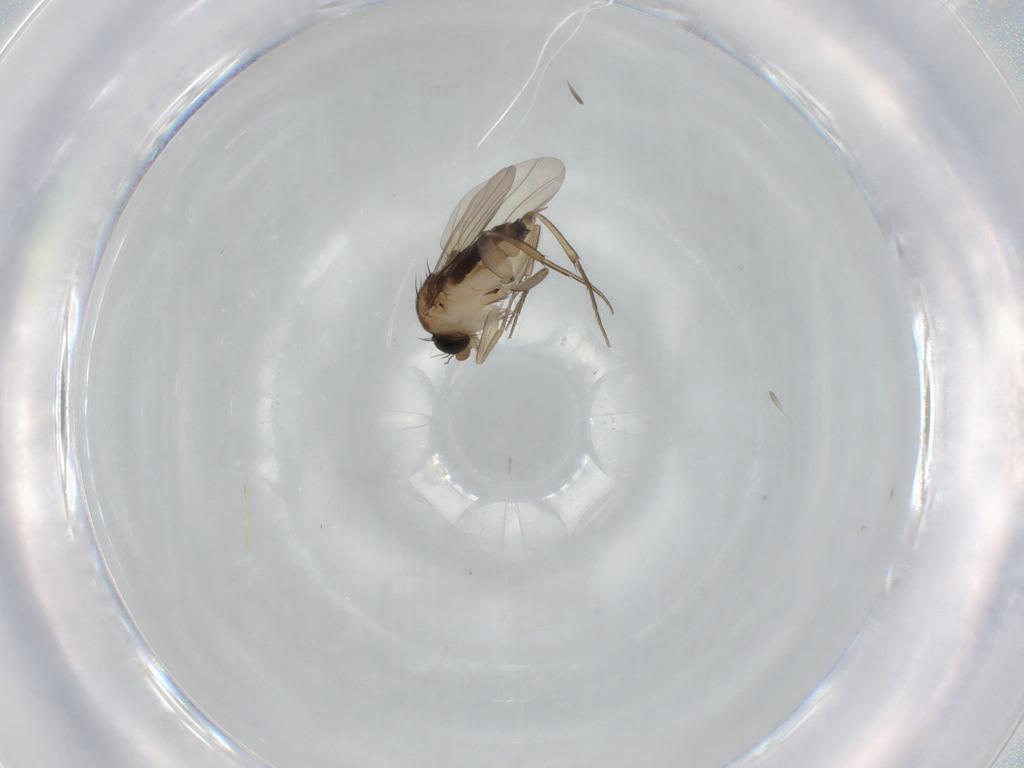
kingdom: Animalia
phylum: Arthropoda
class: Insecta
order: Diptera
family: Phoridae
